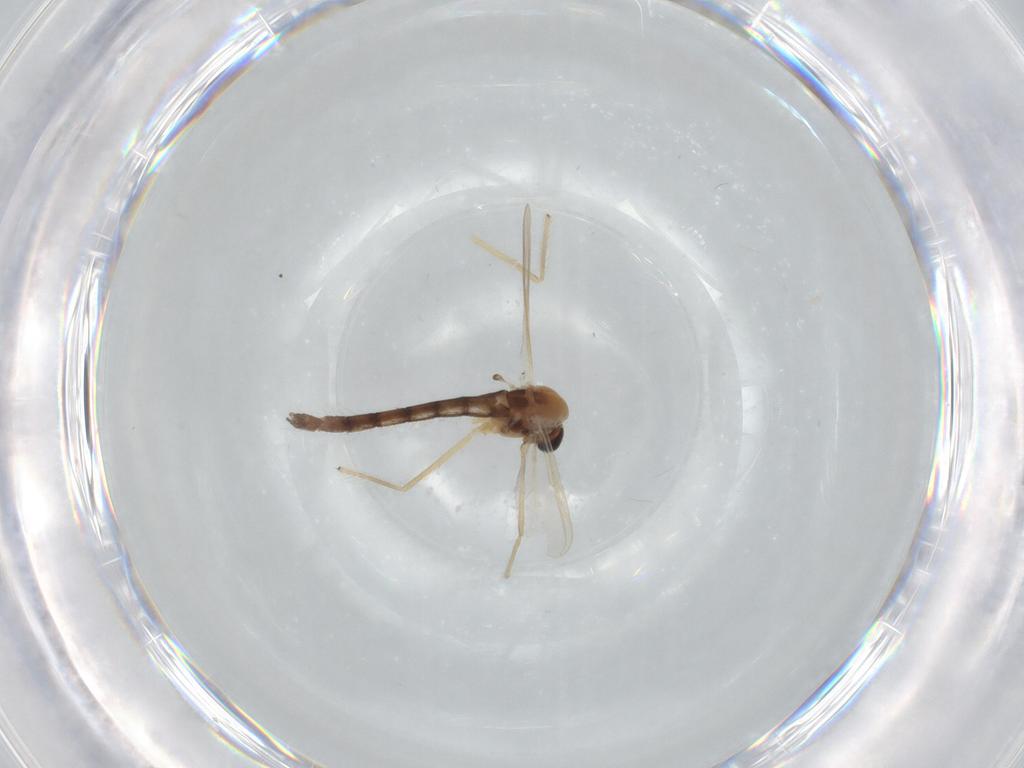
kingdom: Animalia
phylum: Arthropoda
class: Insecta
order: Diptera
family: Chironomidae
